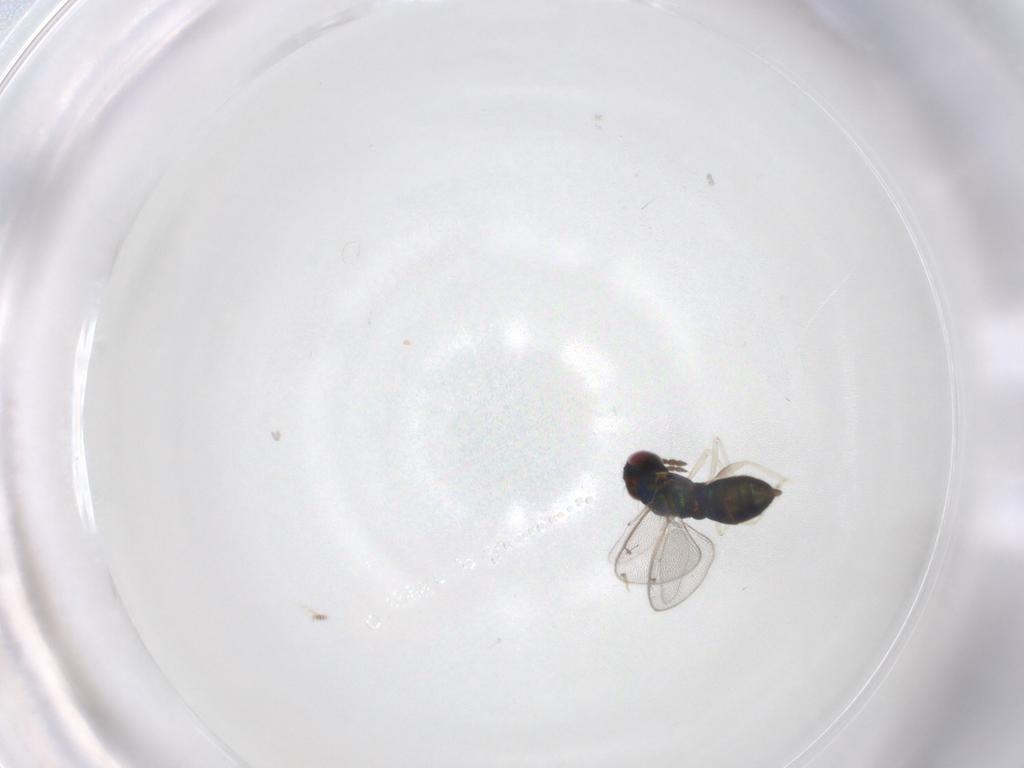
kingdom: Animalia
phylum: Arthropoda
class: Insecta
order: Hymenoptera
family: Eulophidae
